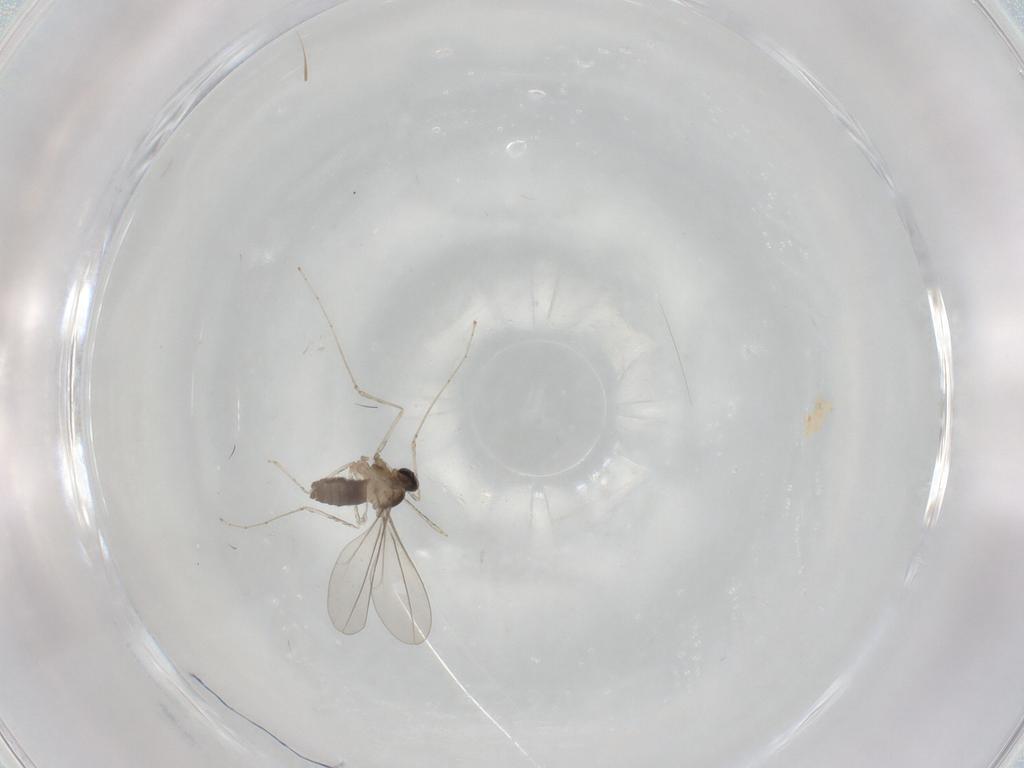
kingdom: Animalia
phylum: Arthropoda
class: Insecta
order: Diptera
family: Cecidomyiidae
